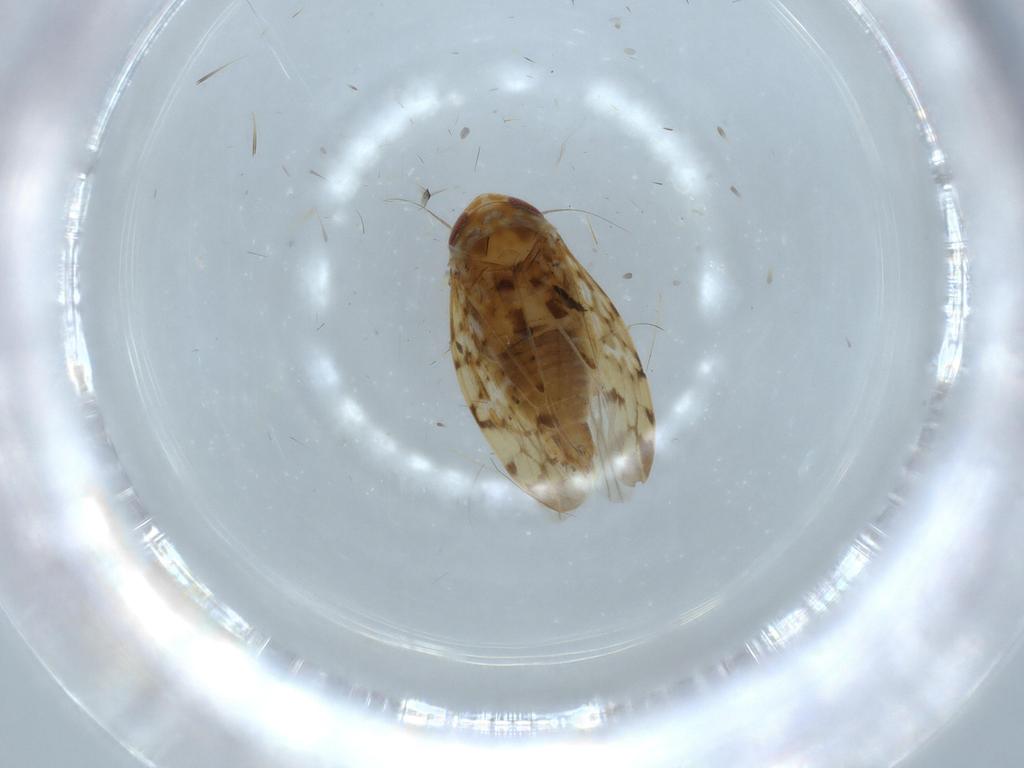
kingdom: Animalia
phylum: Arthropoda
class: Insecta
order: Hemiptera
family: Cicadellidae
